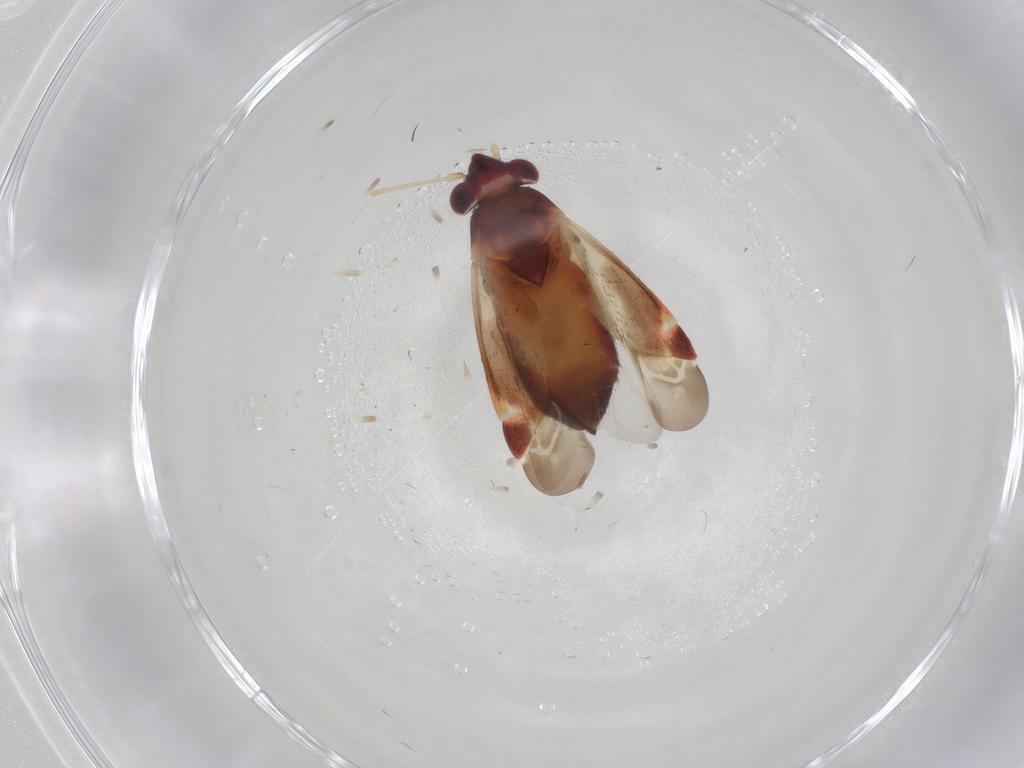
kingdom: Animalia
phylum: Arthropoda
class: Insecta
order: Hemiptera
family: Miridae
